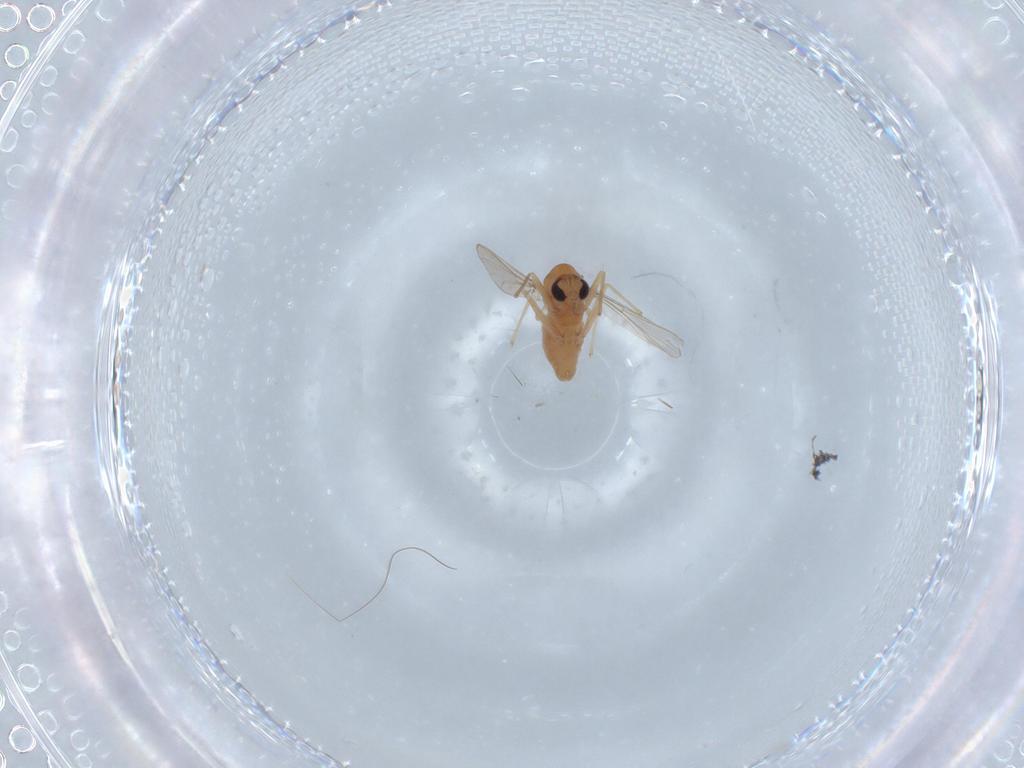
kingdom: Animalia
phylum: Arthropoda
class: Insecta
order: Diptera
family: Chironomidae
